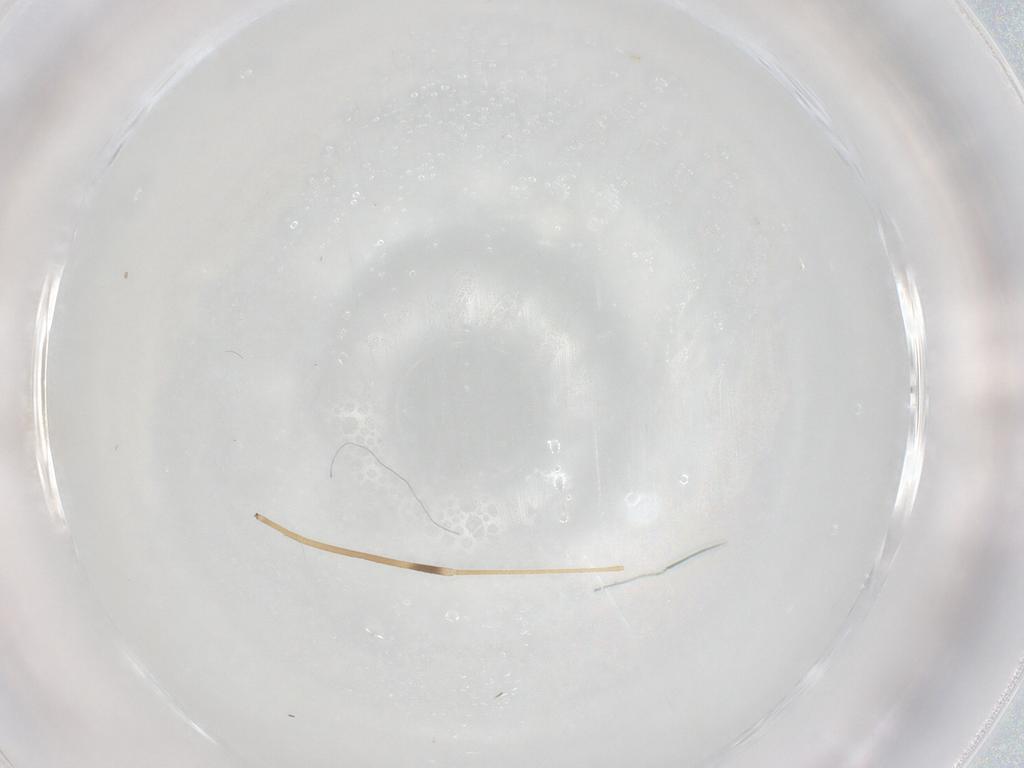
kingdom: Animalia
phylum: Arthropoda
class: Insecta
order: Diptera
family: Limoniidae
